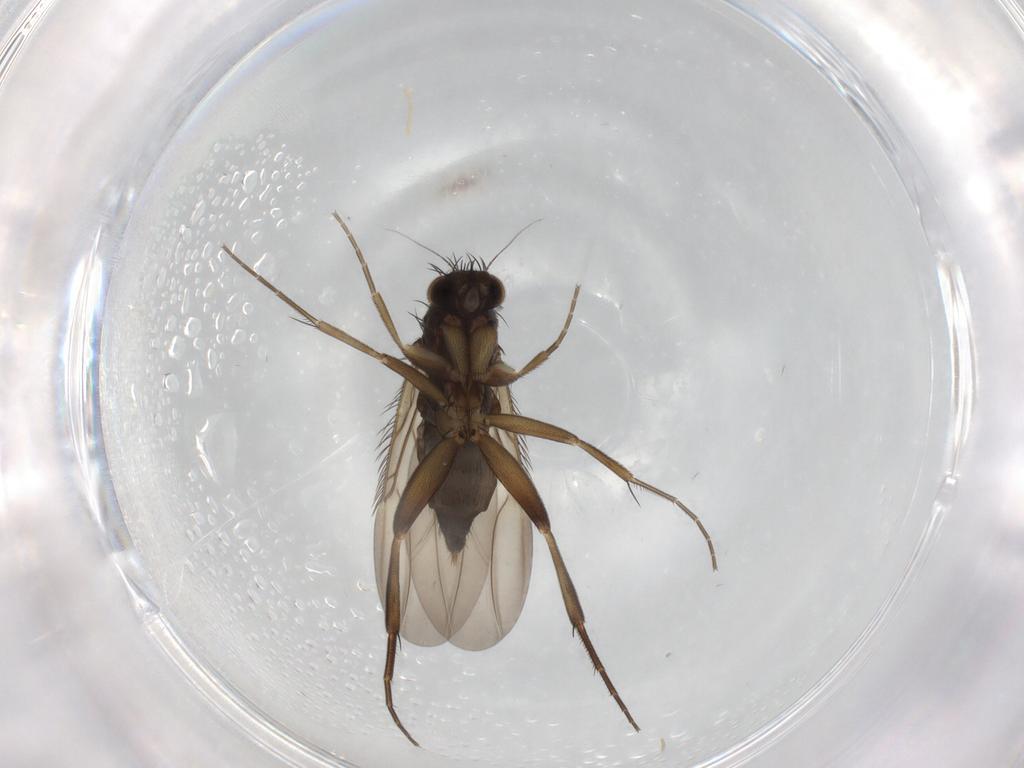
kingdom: Animalia
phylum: Arthropoda
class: Insecta
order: Diptera
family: Phoridae
